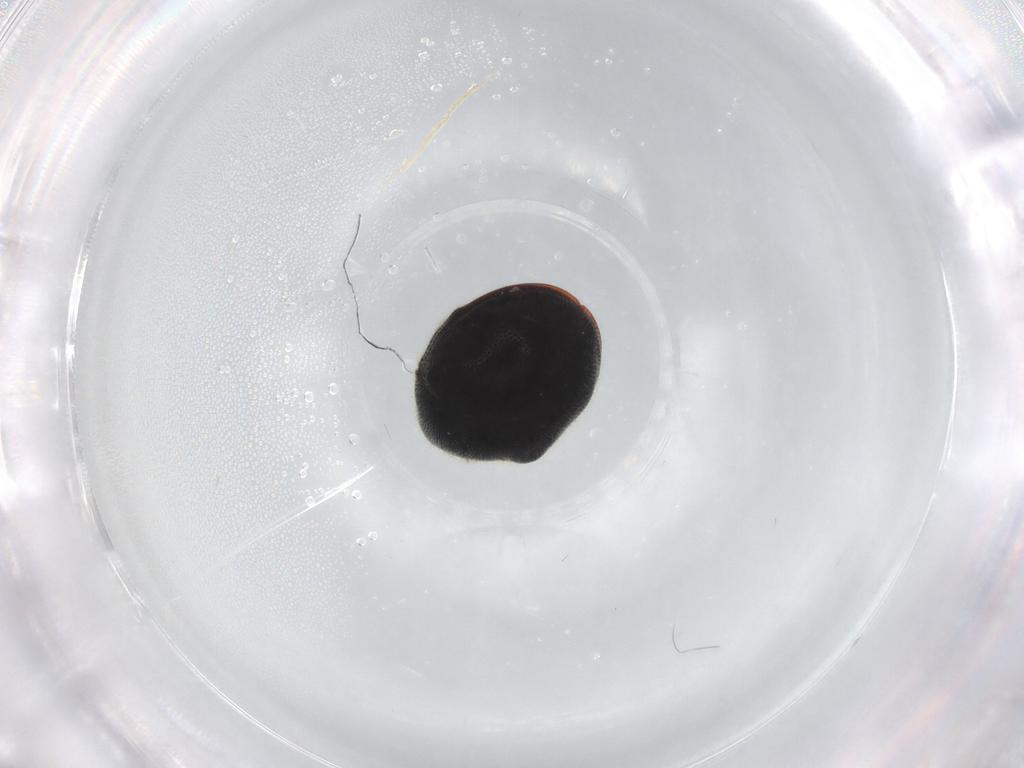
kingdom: Animalia
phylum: Arthropoda
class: Insecta
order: Coleoptera
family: Ptinidae
